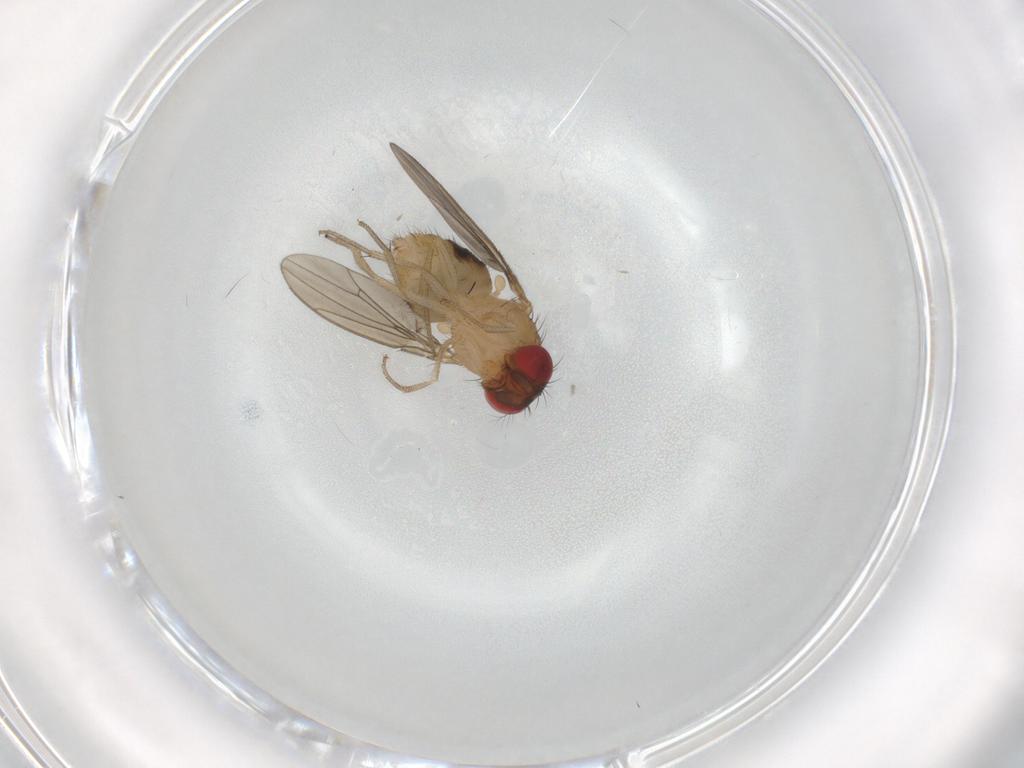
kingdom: Animalia
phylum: Arthropoda
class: Insecta
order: Diptera
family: Drosophilidae
